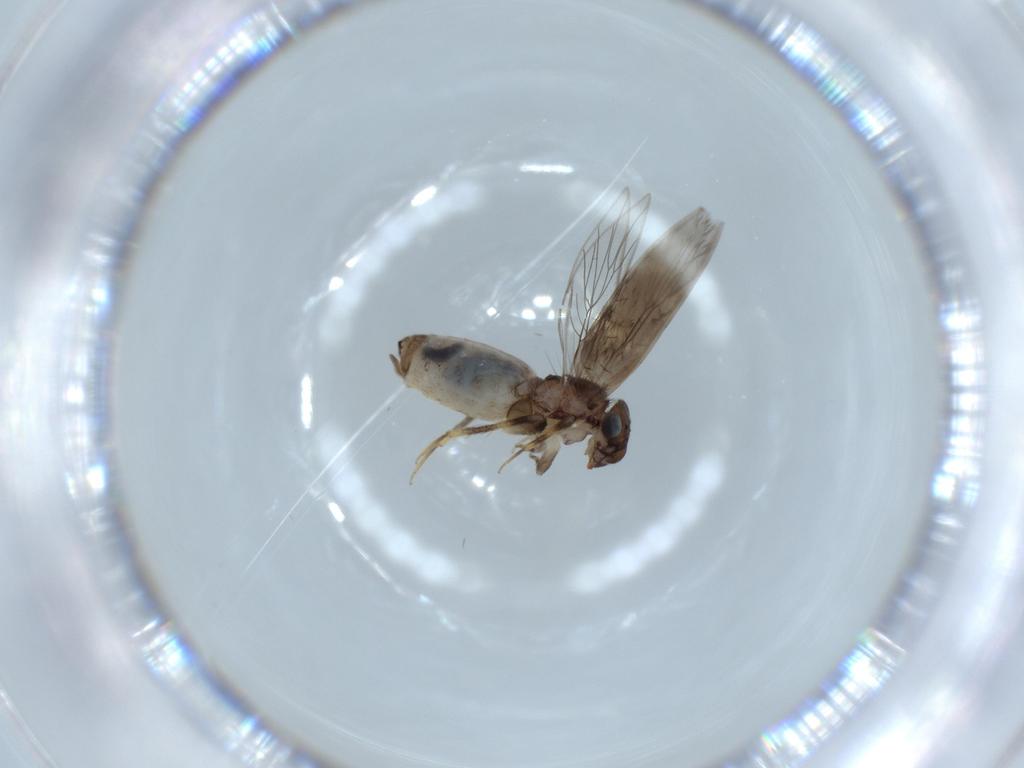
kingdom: Animalia
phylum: Arthropoda
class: Insecta
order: Psocodea
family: Lepidopsocidae
